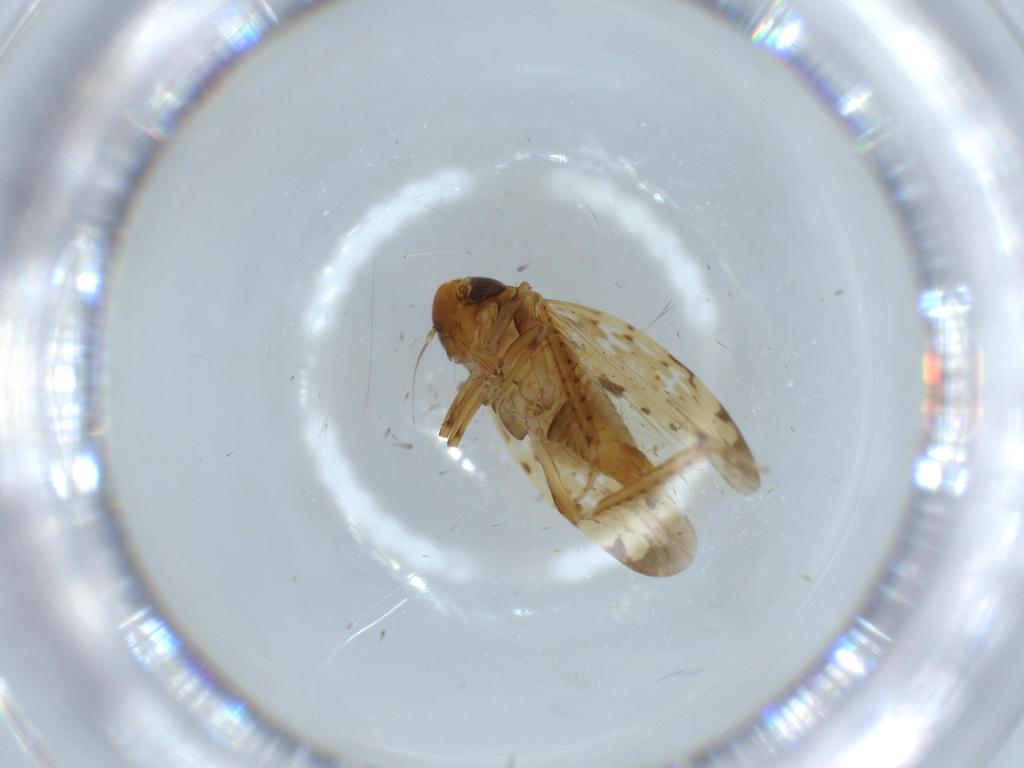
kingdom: Animalia
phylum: Arthropoda
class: Insecta
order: Hemiptera
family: Cicadellidae
